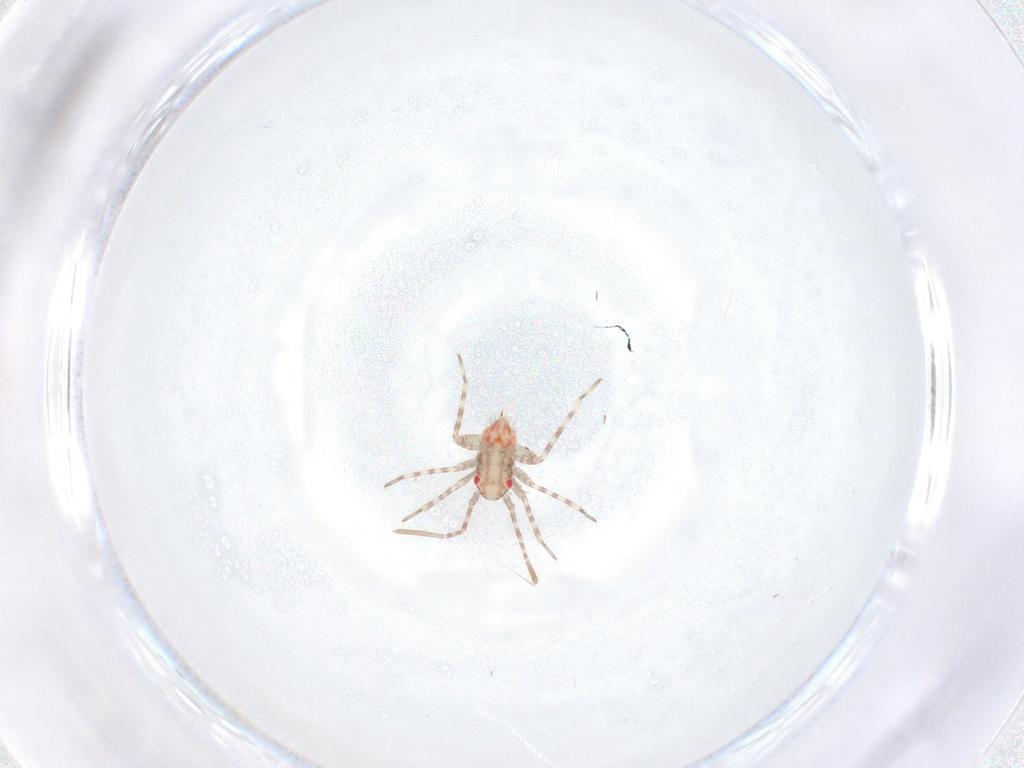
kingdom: Animalia
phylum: Arthropoda
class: Insecta
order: Hemiptera
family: Miridae
